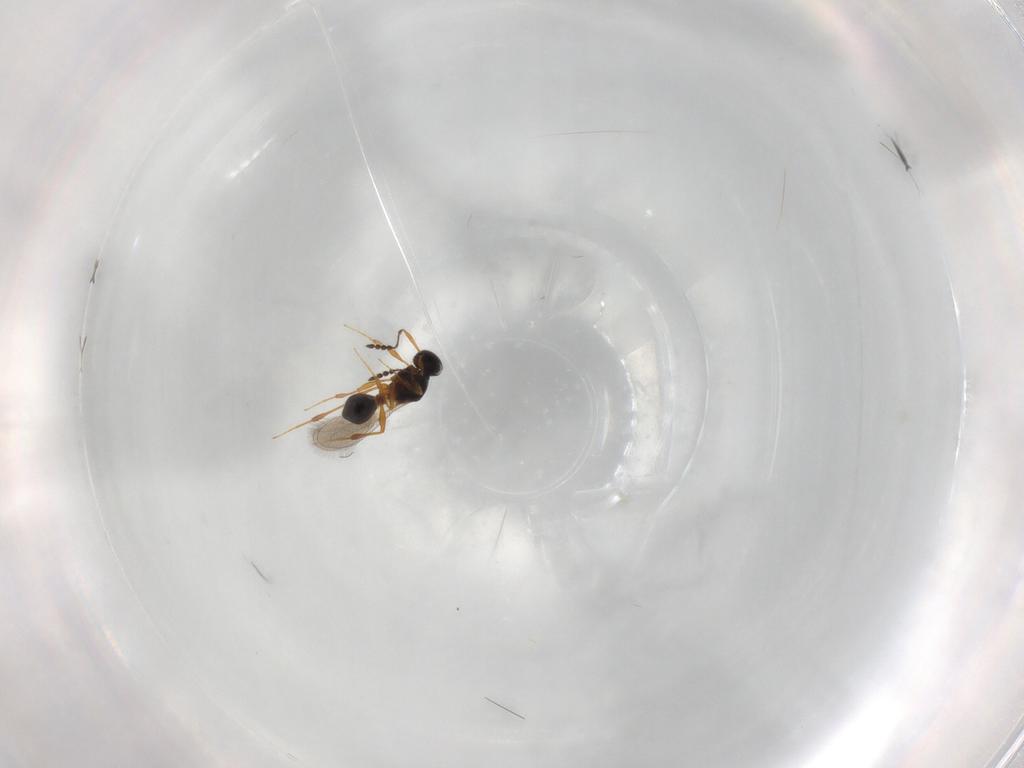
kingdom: Animalia
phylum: Arthropoda
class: Insecta
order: Hymenoptera
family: Platygastridae
